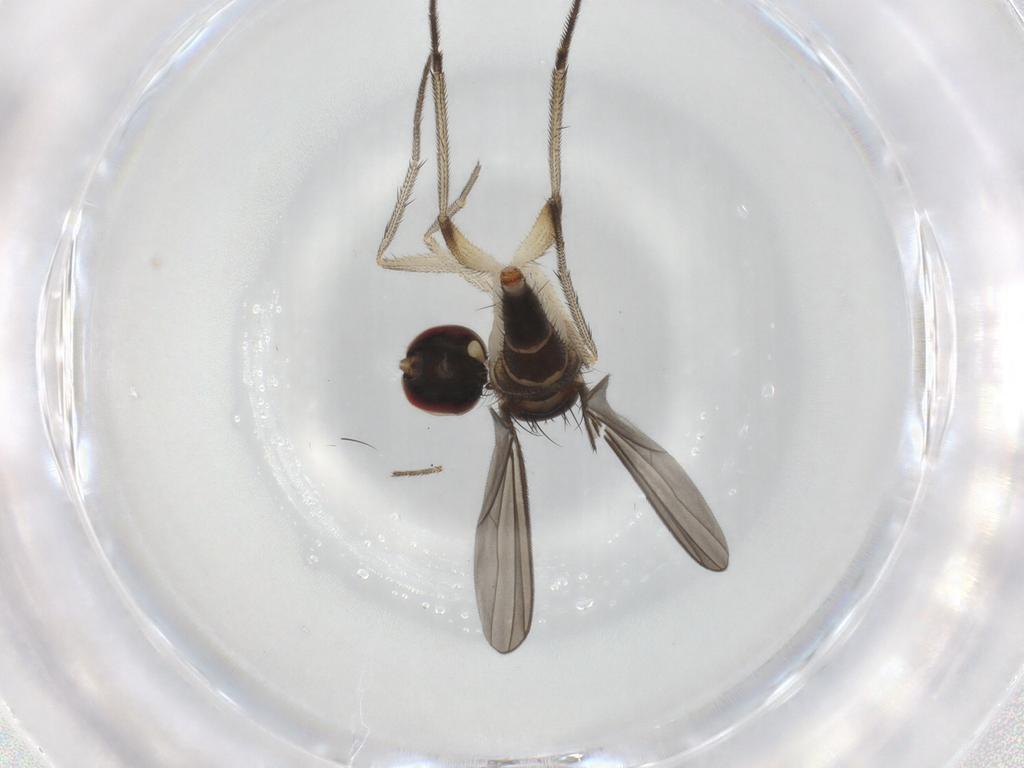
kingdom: Animalia
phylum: Arthropoda
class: Insecta
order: Diptera
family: Dolichopodidae
